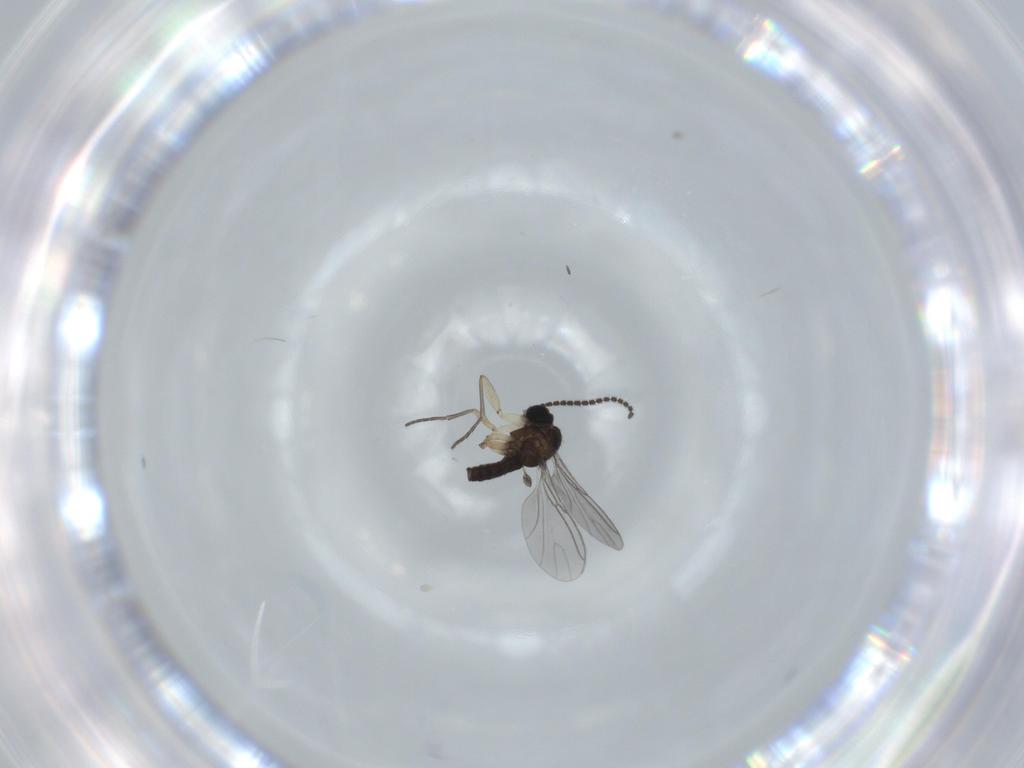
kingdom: Animalia
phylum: Arthropoda
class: Insecta
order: Diptera
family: Sciaridae
